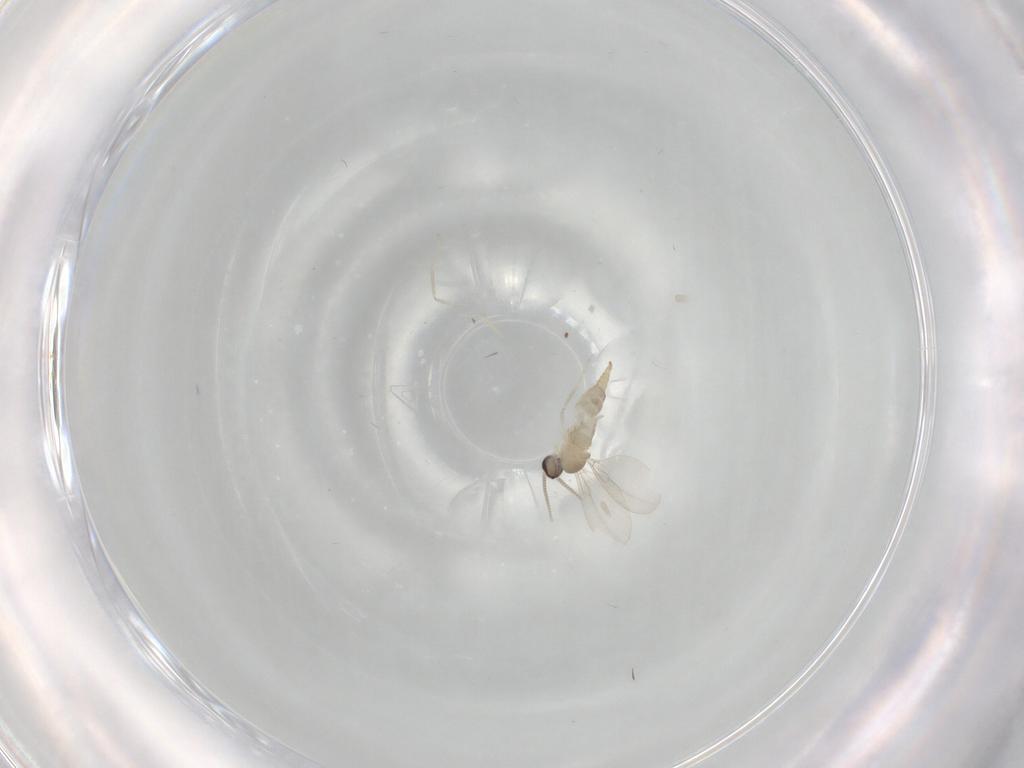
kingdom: Animalia
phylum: Arthropoda
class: Insecta
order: Diptera
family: Cecidomyiidae
